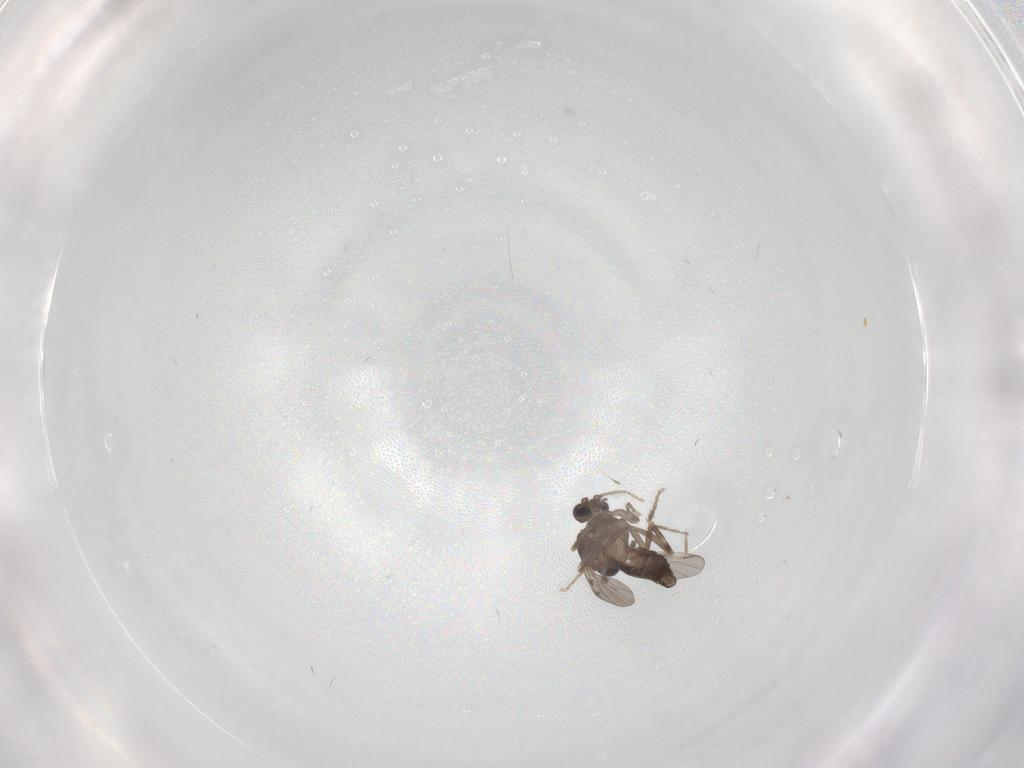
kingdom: Animalia
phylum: Arthropoda
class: Insecta
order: Diptera
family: Ceratopogonidae
